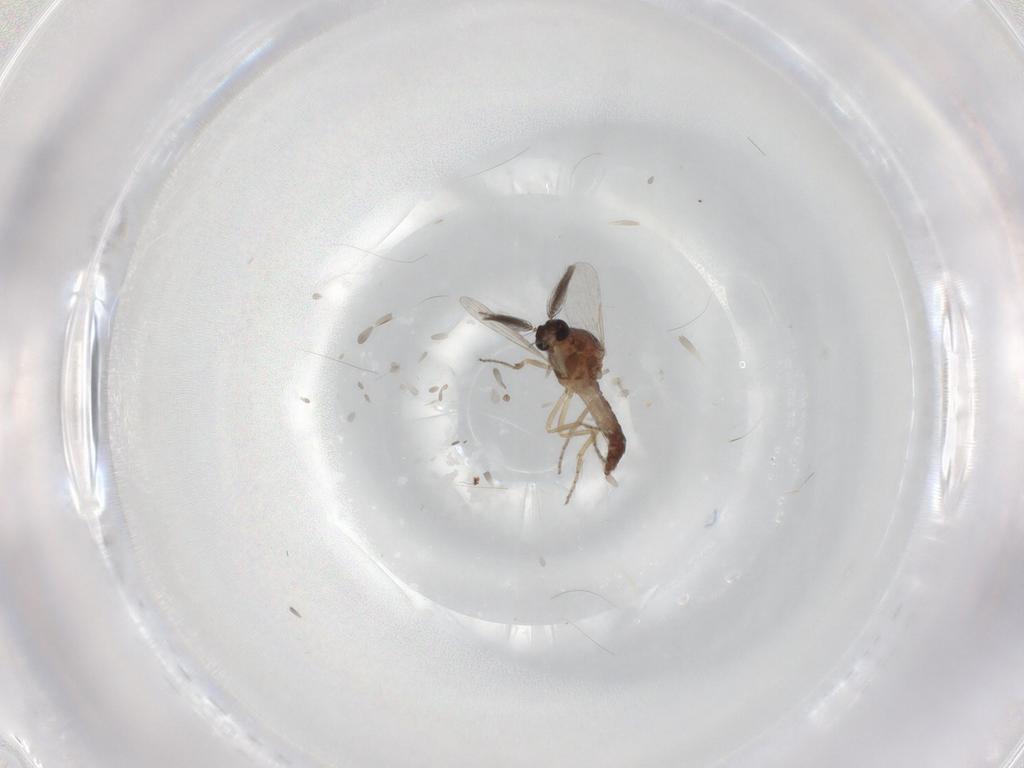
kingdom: Animalia
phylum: Arthropoda
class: Insecta
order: Diptera
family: Ceratopogonidae
